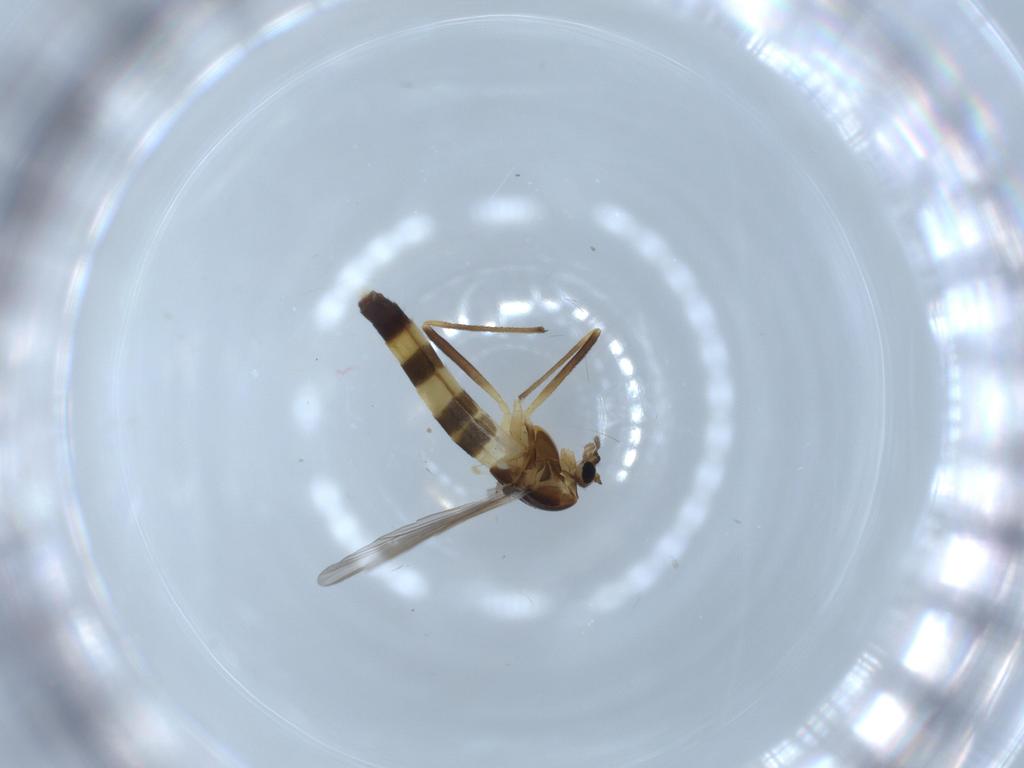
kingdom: Animalia
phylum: Arthropoda
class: Insecta
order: Diptera
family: Chironomidae
